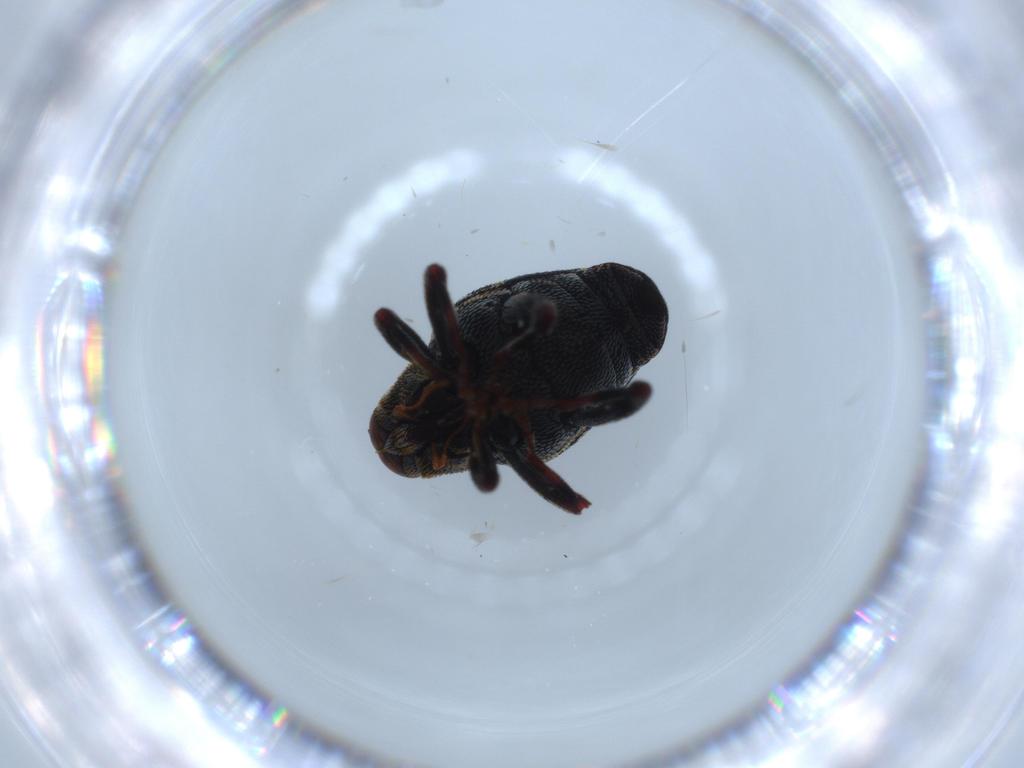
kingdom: Animalia
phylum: Arthropoda
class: Insecta
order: Coleoptera
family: Curculionidae
